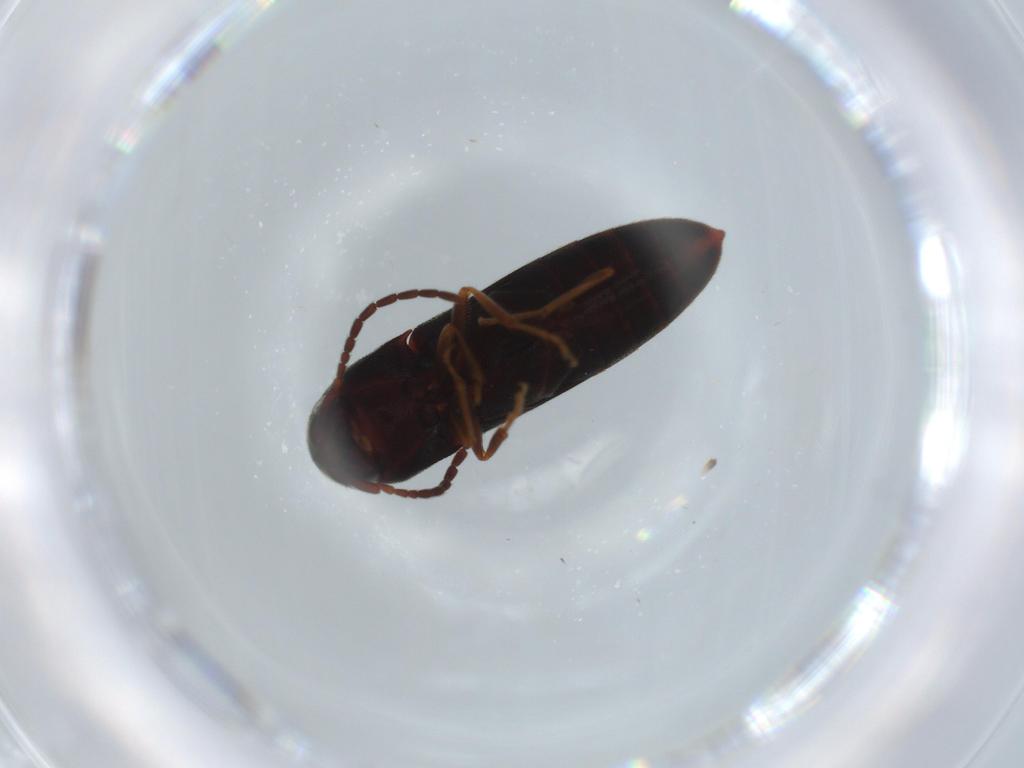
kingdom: Animalia
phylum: Arthropoda
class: Insecta
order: Coleoptera
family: Eucnemidae
